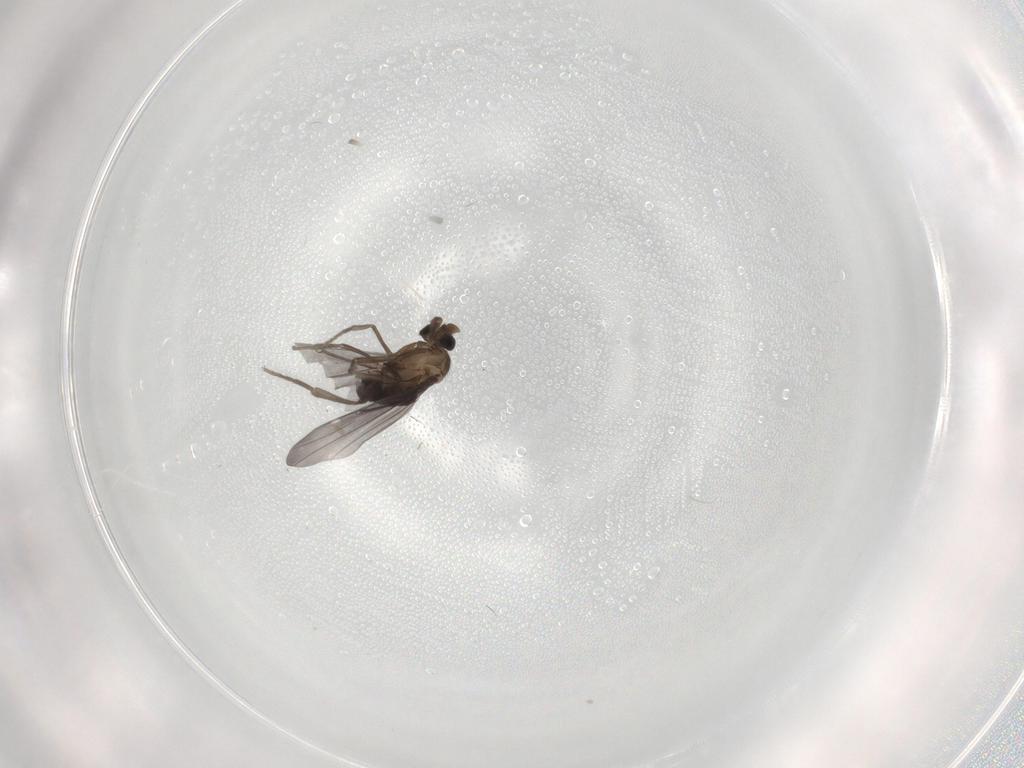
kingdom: Animalia
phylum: Arthropoda
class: Insecta
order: Diptera
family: Phoridae
